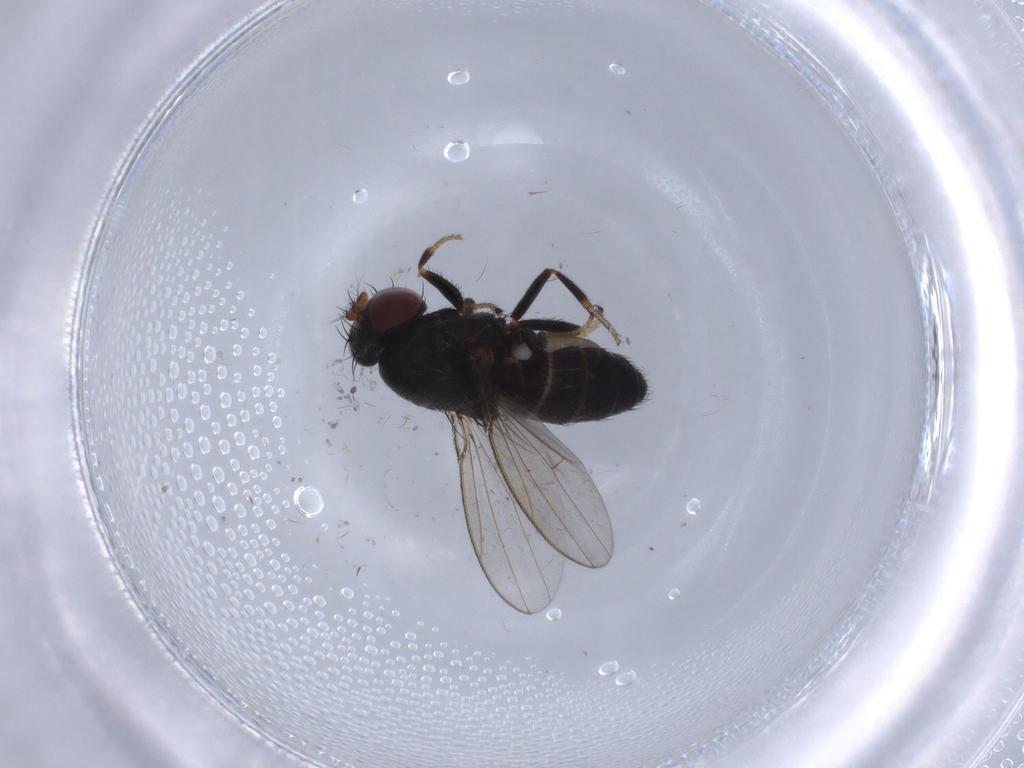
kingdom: Animalia
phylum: Arthropoda
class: Insecta
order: Diptera
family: Ephydridae
